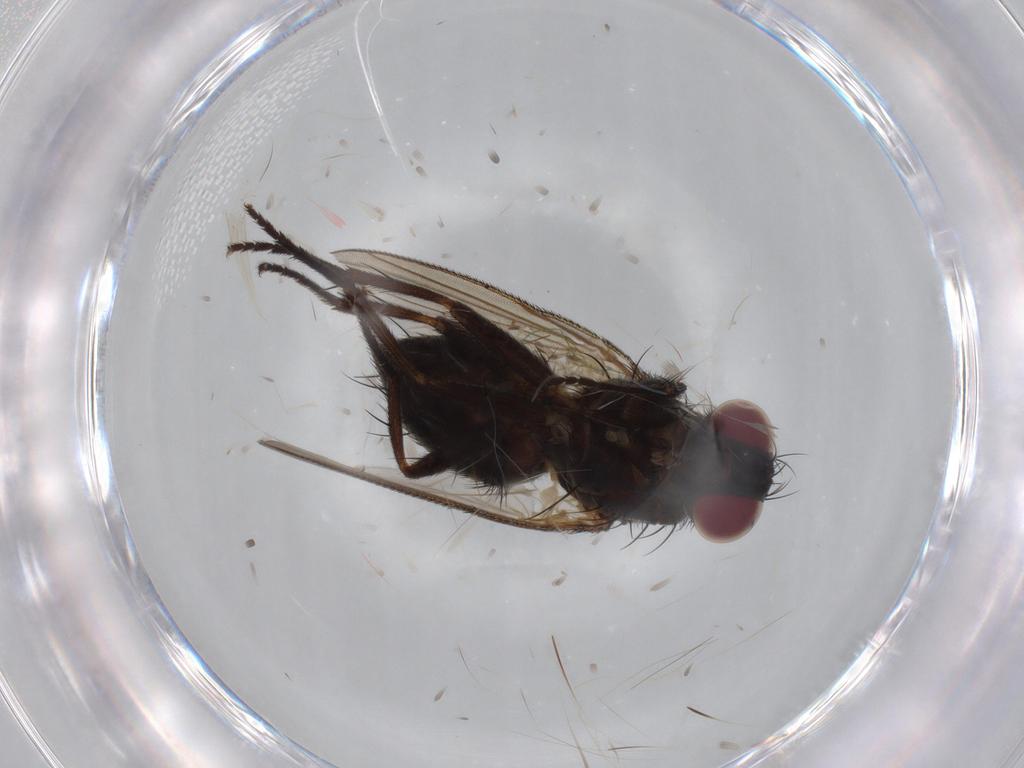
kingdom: Animalia
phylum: Arthropoda
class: Insecta
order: Diptera
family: Muscidae
